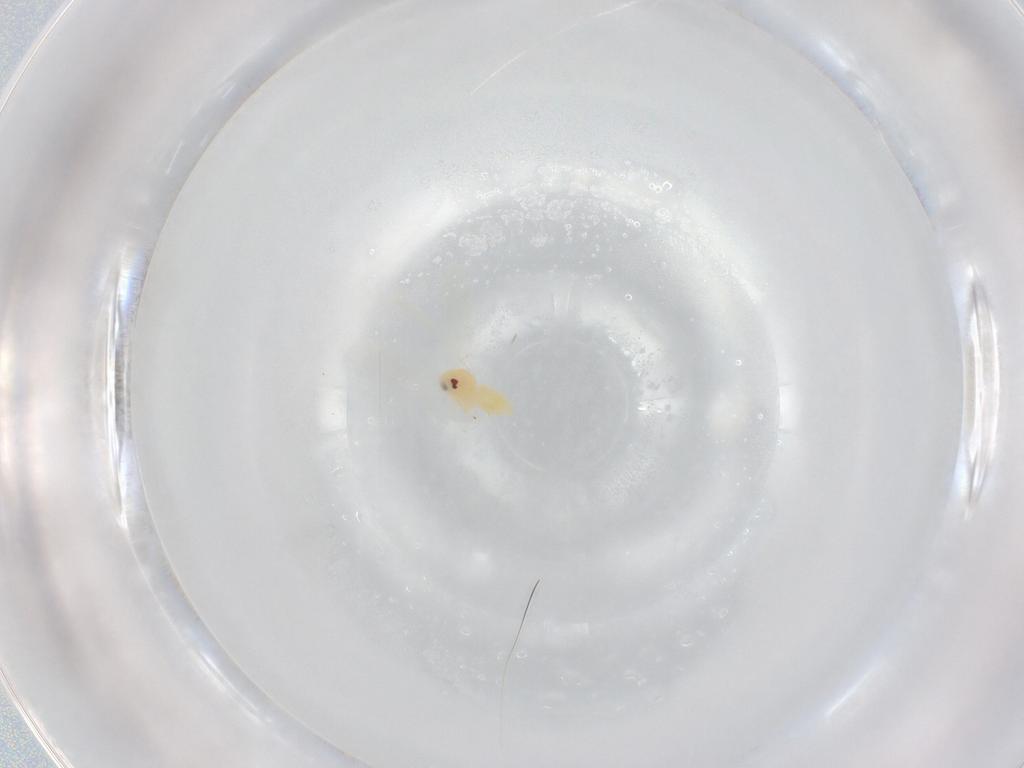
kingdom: Animalia
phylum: Arthropoda
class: Insecta
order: Hemiptera
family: Aleyrodidae
